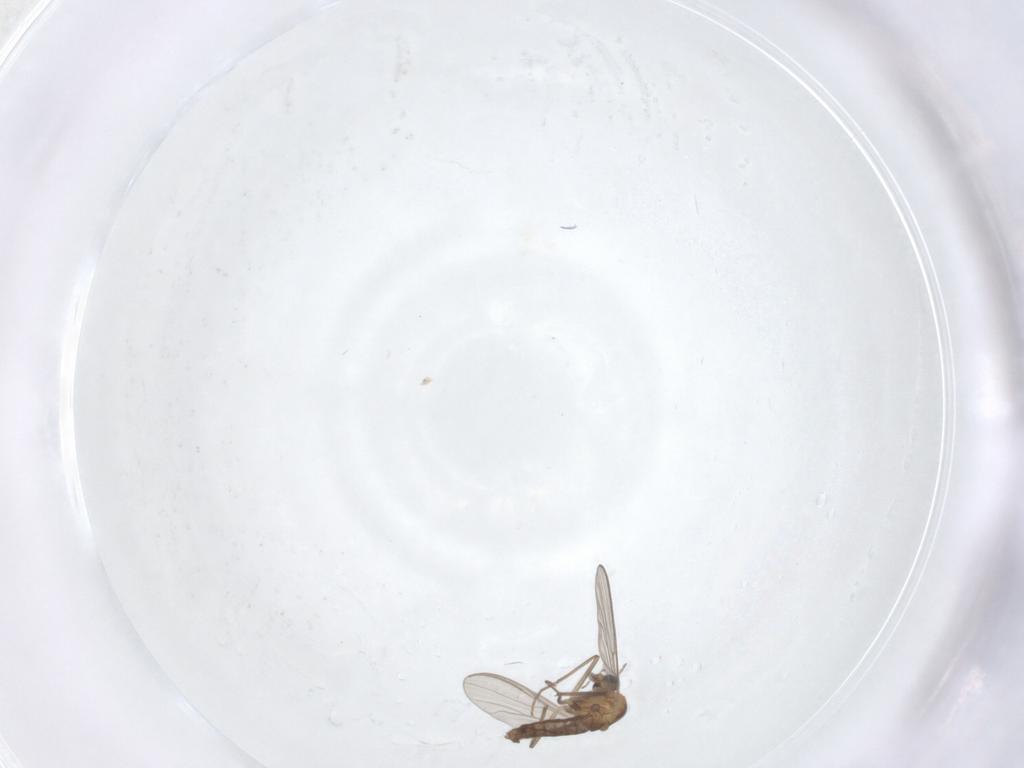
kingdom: Animalia
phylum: Arthropoda
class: Insecta
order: Diptera
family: Chironomidae
